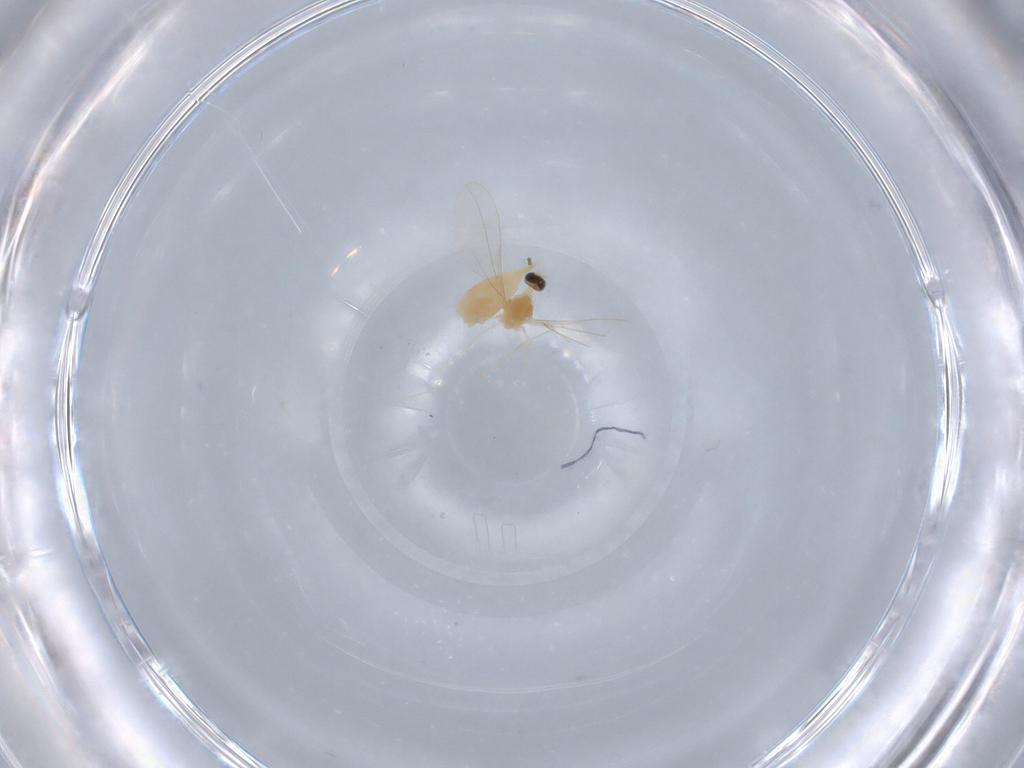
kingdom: Animalia
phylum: Arthropoda
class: Insecta
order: Diptera
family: Cecidomyiidae
